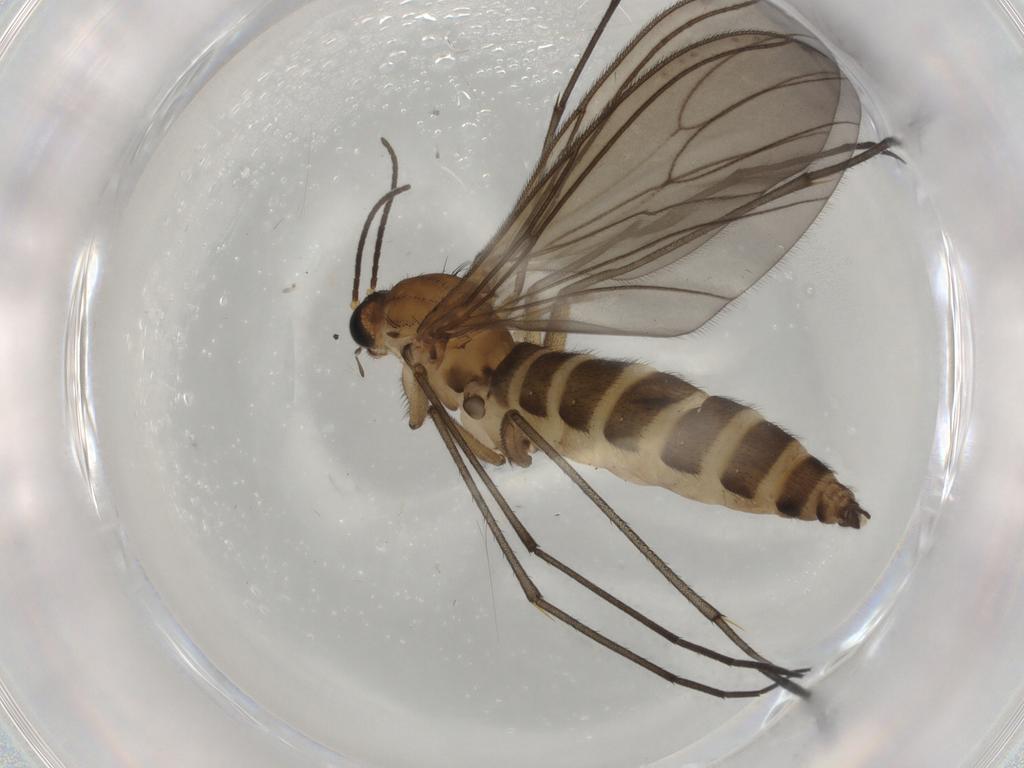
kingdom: Animalia
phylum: Arthropoda
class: Insecta
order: Diptera
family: Sciaridae
